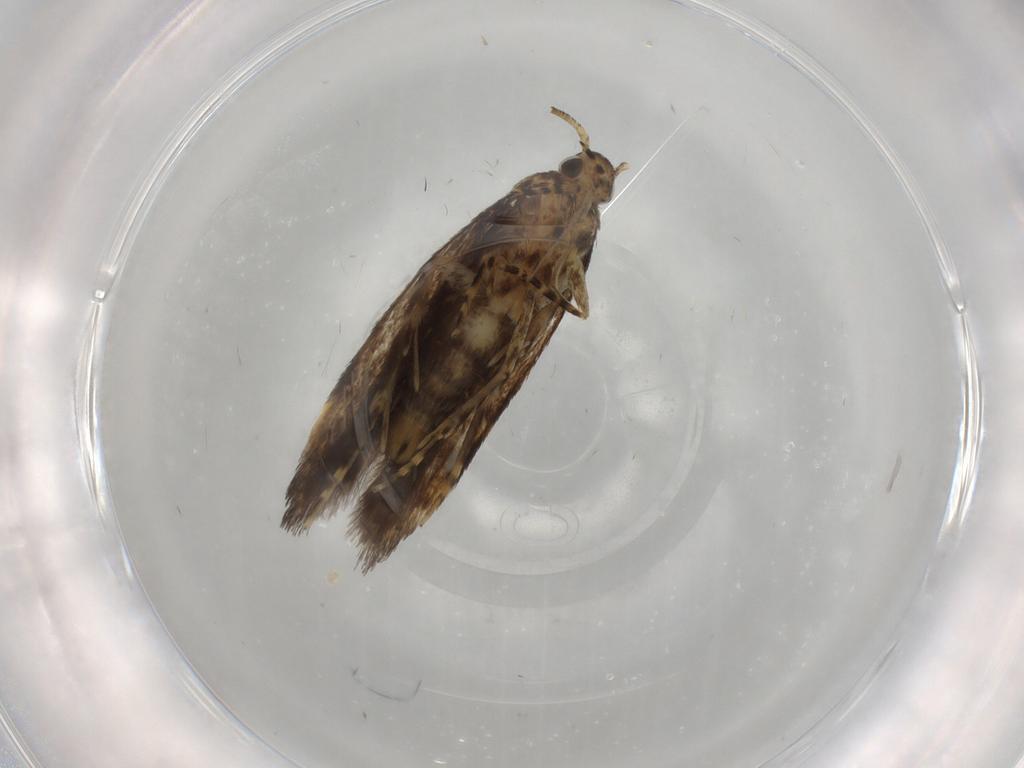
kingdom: Animalia
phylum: Arthropoda
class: Insecta
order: Lepidoptera
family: Oecophoridae
